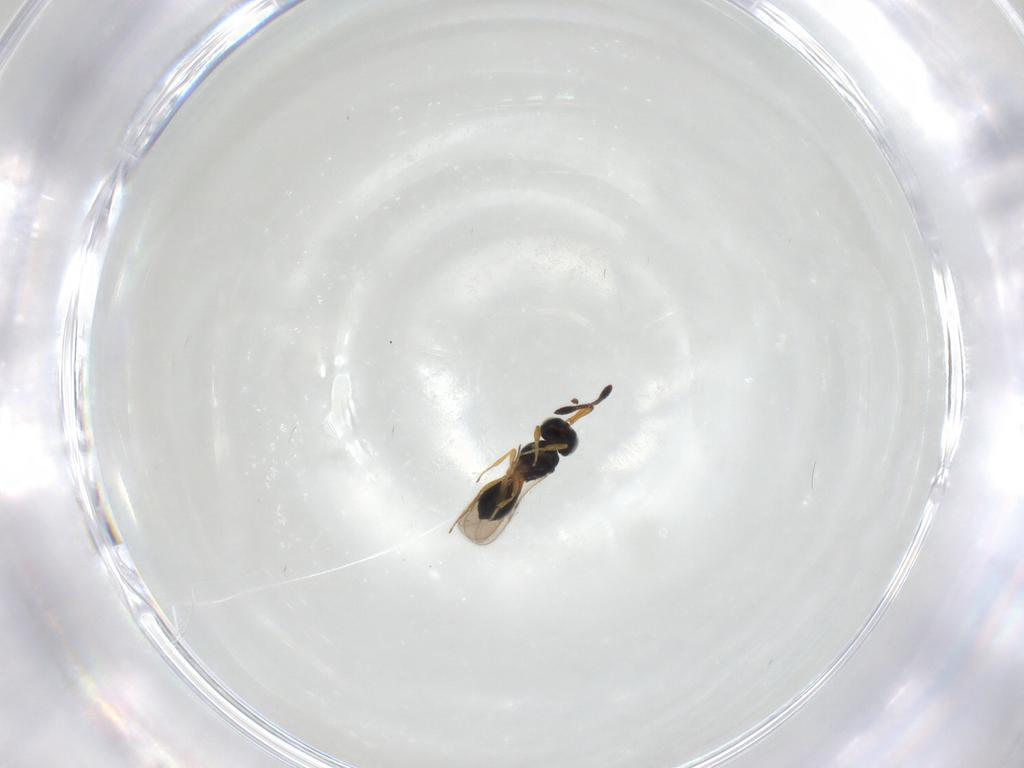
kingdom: Animalia
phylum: Arthropoda
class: Insecta
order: Hymenoptera
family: Scelionidae
